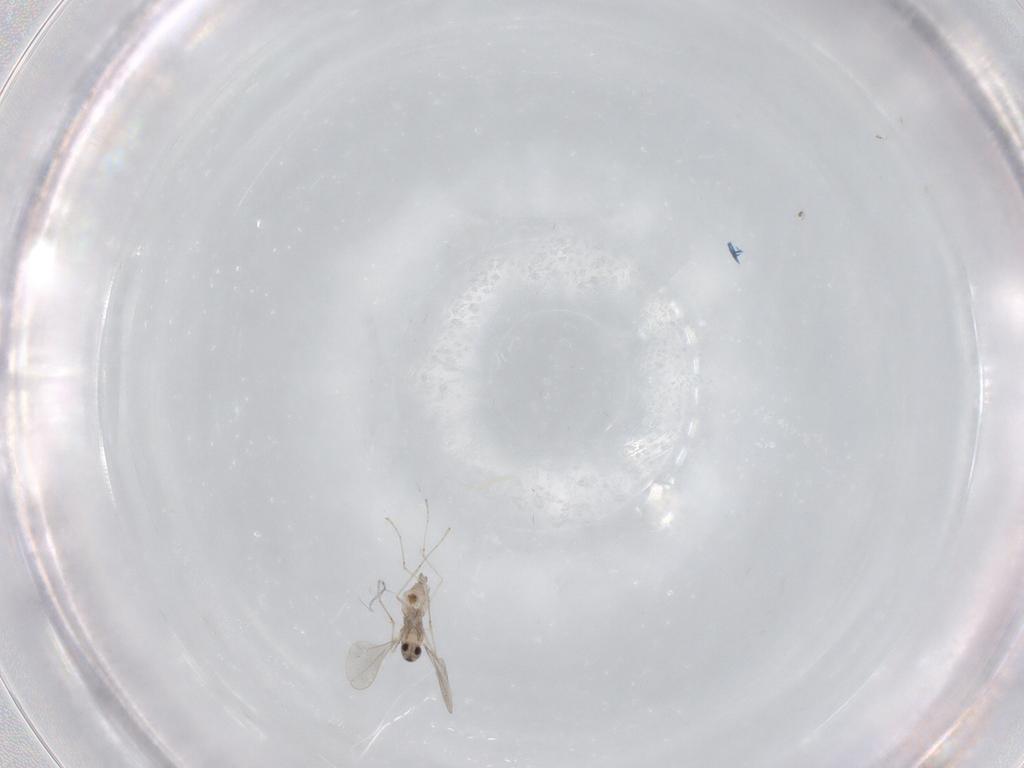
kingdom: Animalia
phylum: Arthropoda
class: Insecta
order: Diptera
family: Cecidomyiidae
